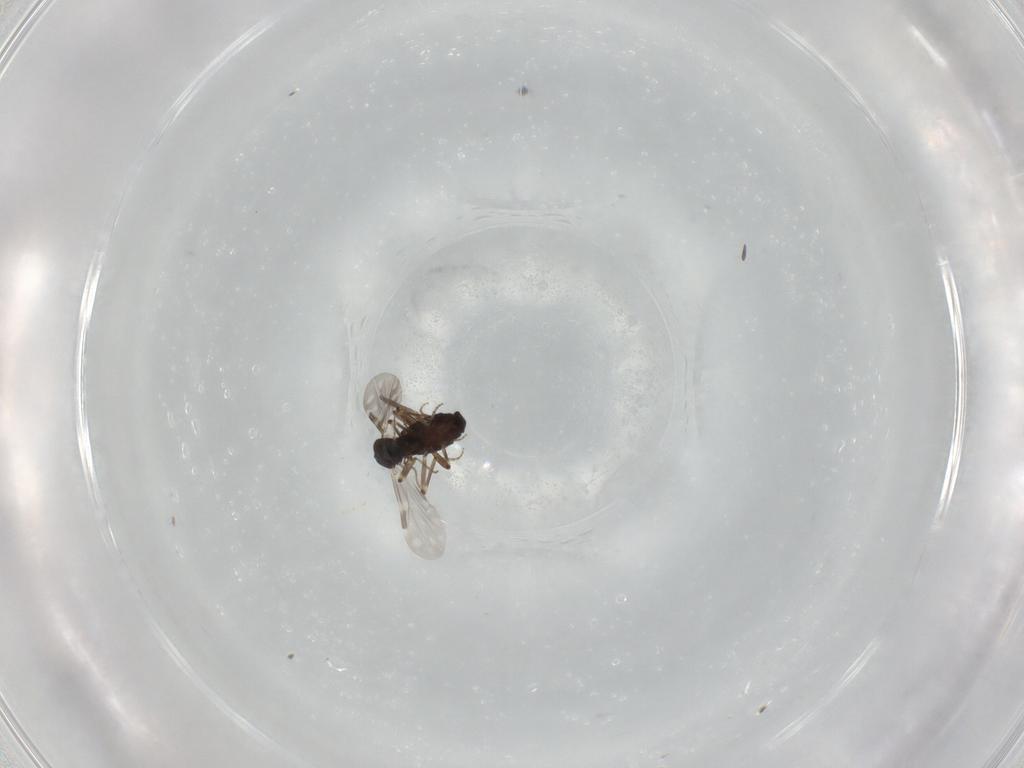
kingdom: Animalia
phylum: Arthropoda
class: Insecta
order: Diptera
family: Ceratopogonidae
